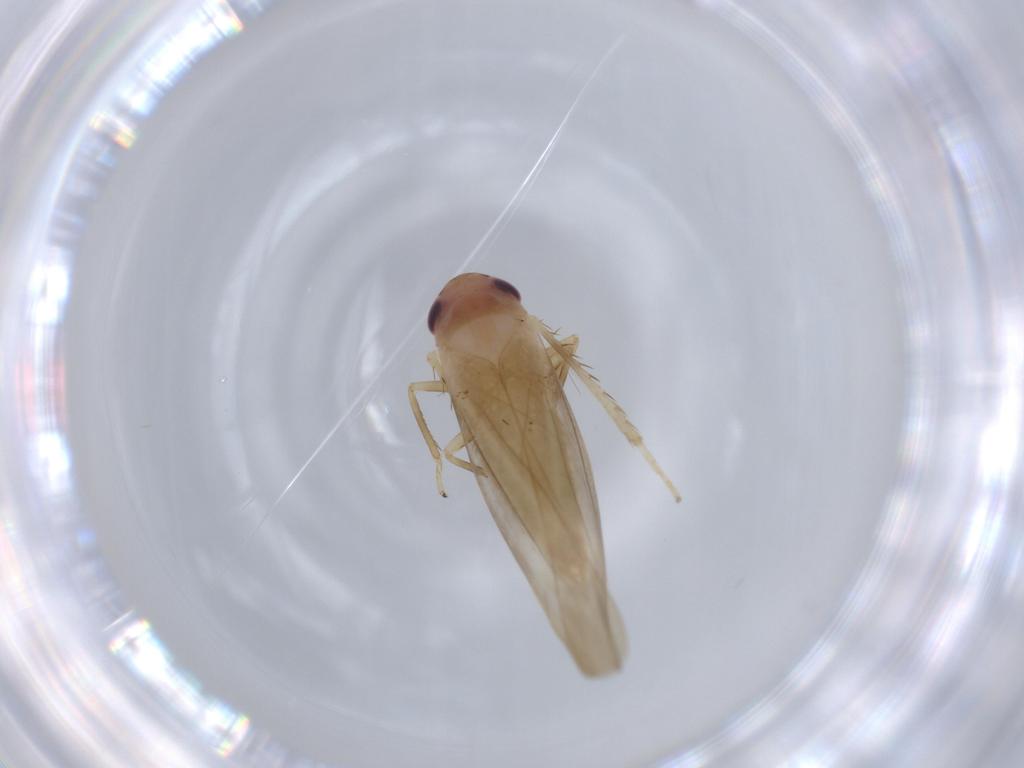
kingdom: Animalia
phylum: Arthropoda
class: Insecta
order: Hemiptera
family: Cicadellidae
